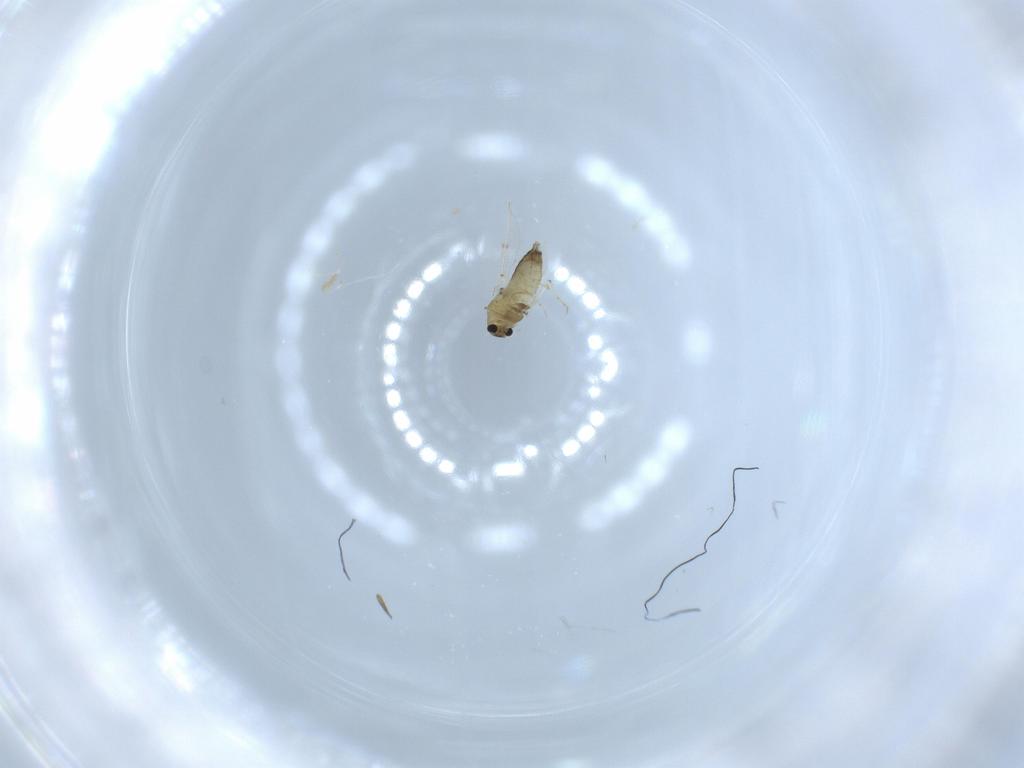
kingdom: Animalia
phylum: Arthropoda
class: Insecta
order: Diptera
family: Chironomidae
